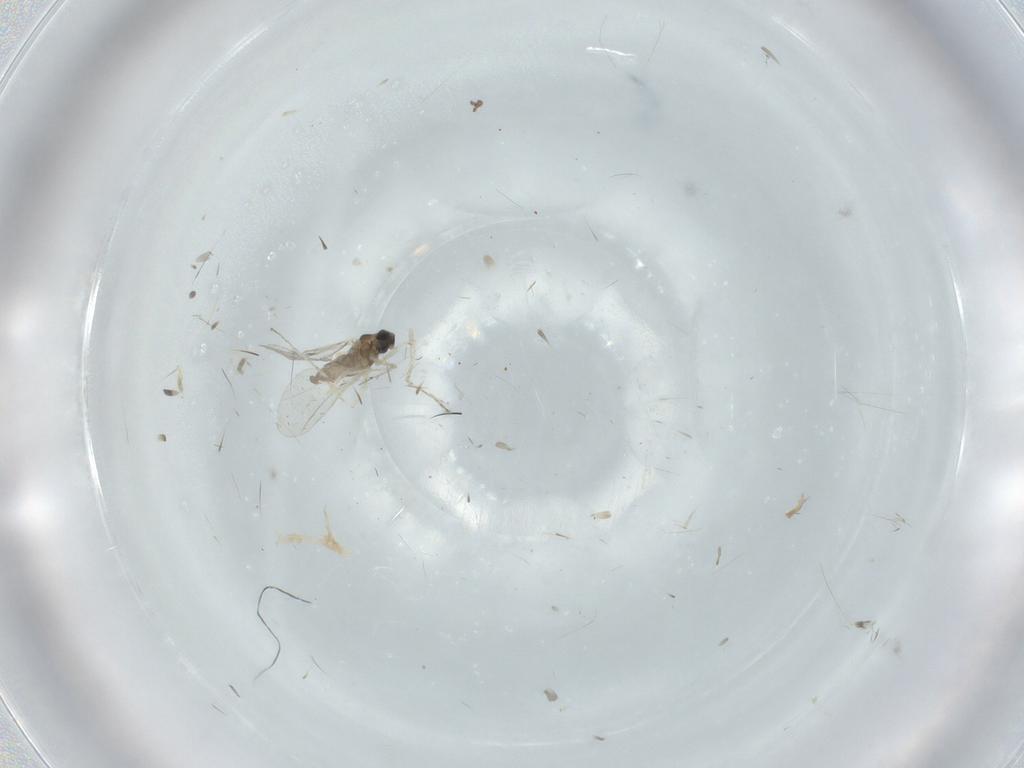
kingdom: Animalia
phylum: Arthropoda
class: Insecta
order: Diptera
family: Cecidomyiidae
